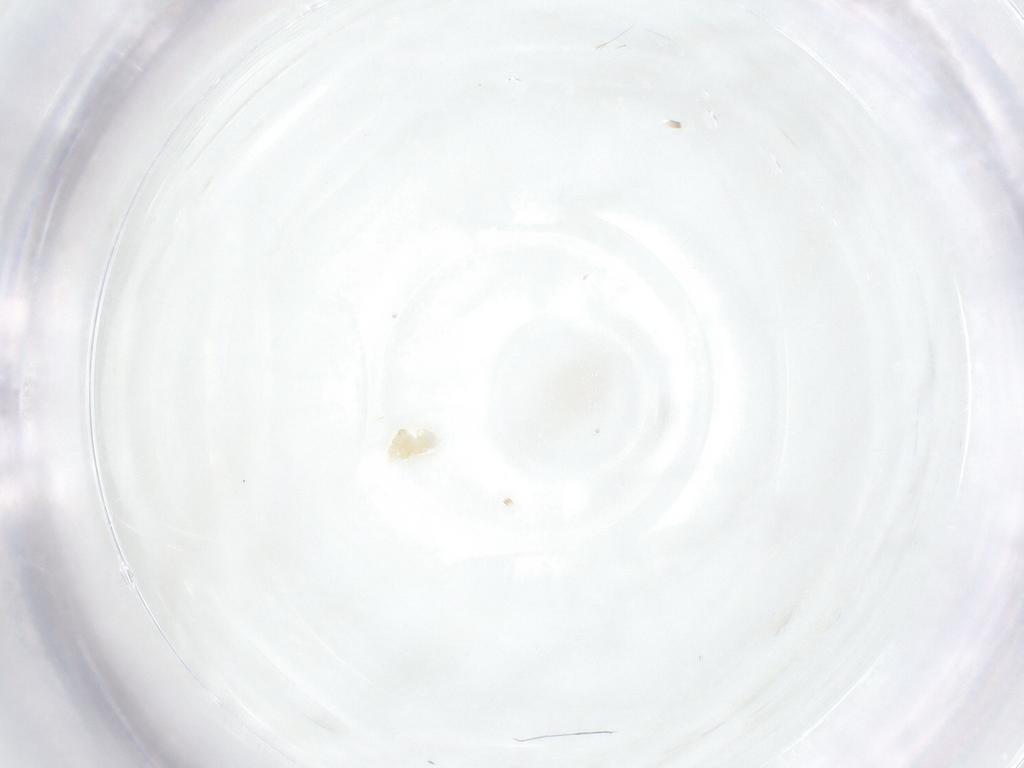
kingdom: Animalia
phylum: Arthropoda
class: Arachnida
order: Trombidiformes
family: Eupodidae
